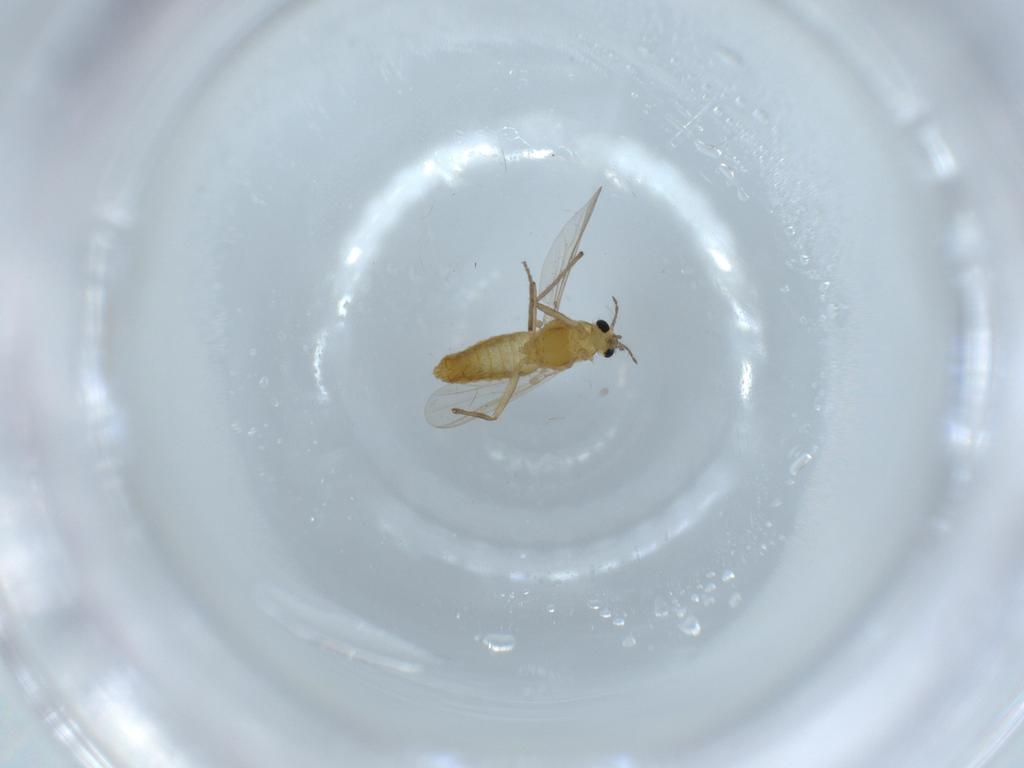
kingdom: Animalia
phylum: Arthropoda
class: Insecta
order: Diptera
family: Chironomidae
